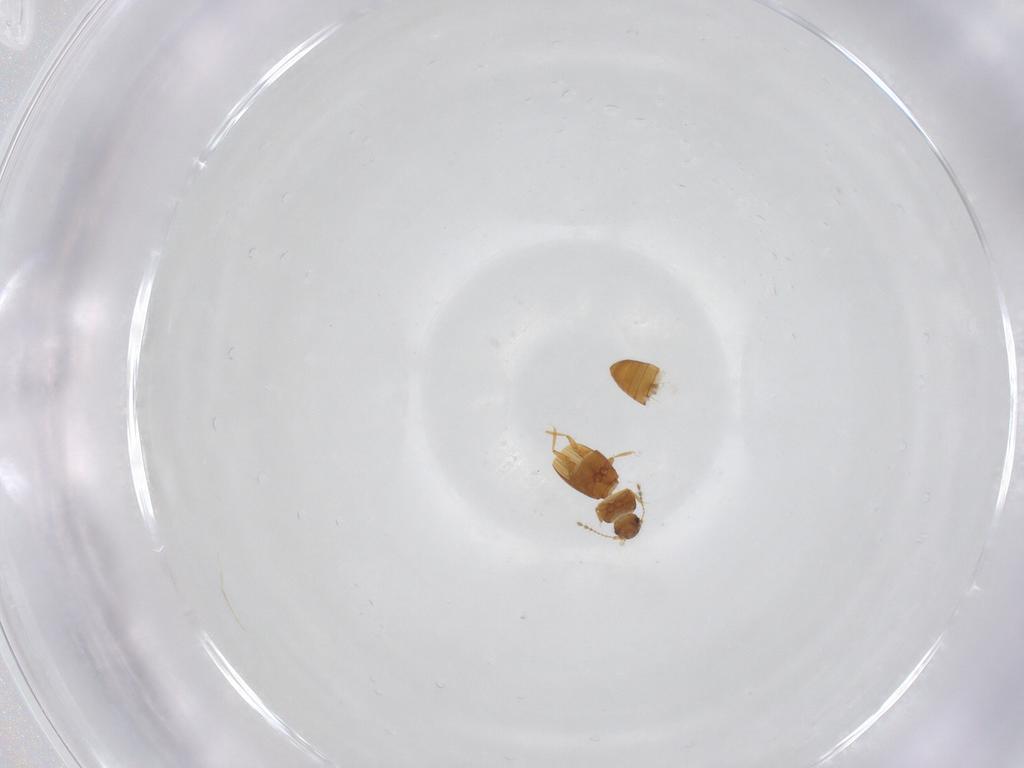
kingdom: Animalia
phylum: Arthropoda
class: Insecta
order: Coleoptera
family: Staphylinidae
